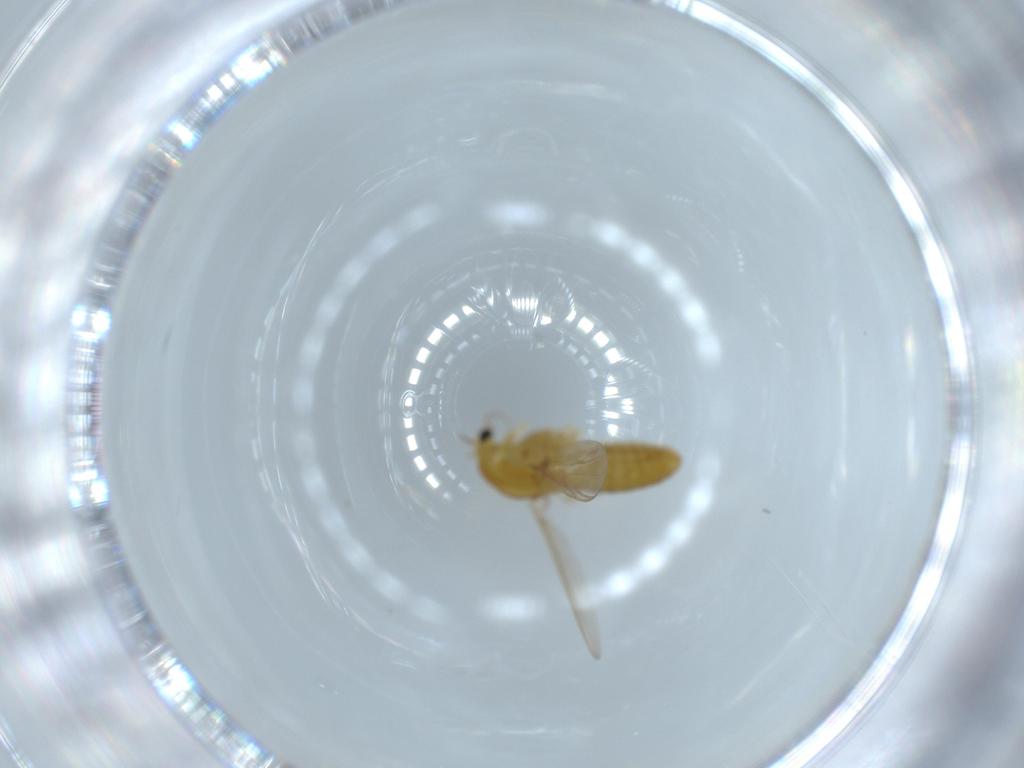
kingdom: Animalia
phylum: Arthropoda
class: Insecta
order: Diptera
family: Chironomidae
